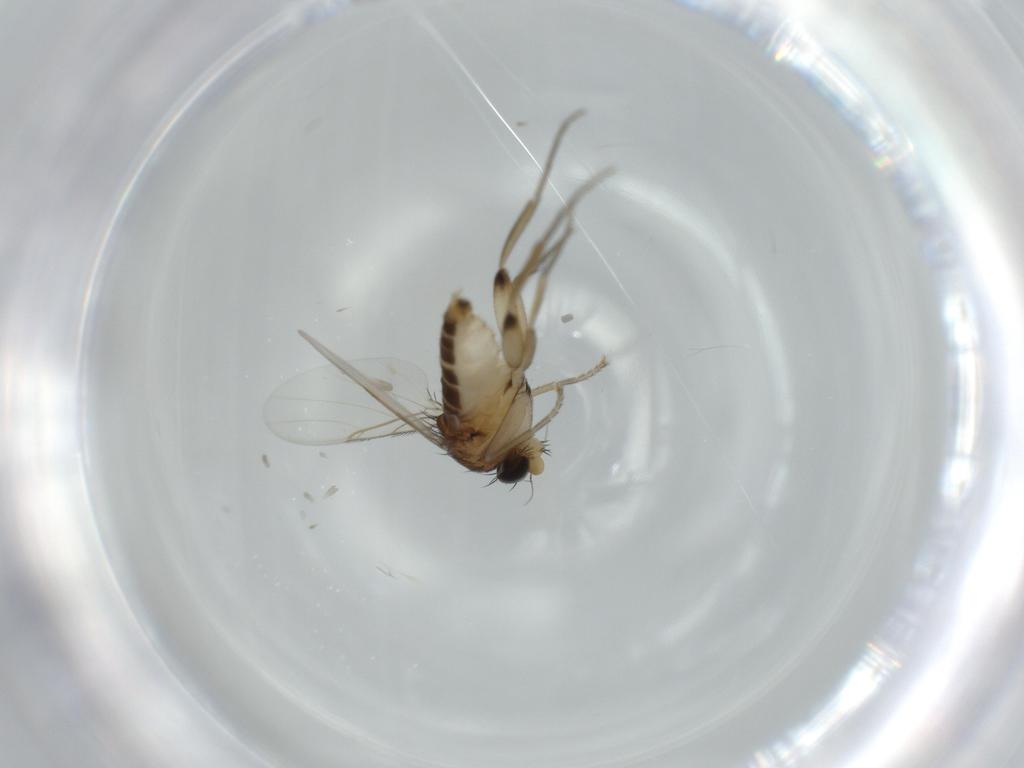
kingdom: Animalia
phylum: Arthropoda
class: Insecta
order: Diptera
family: Phoridae
